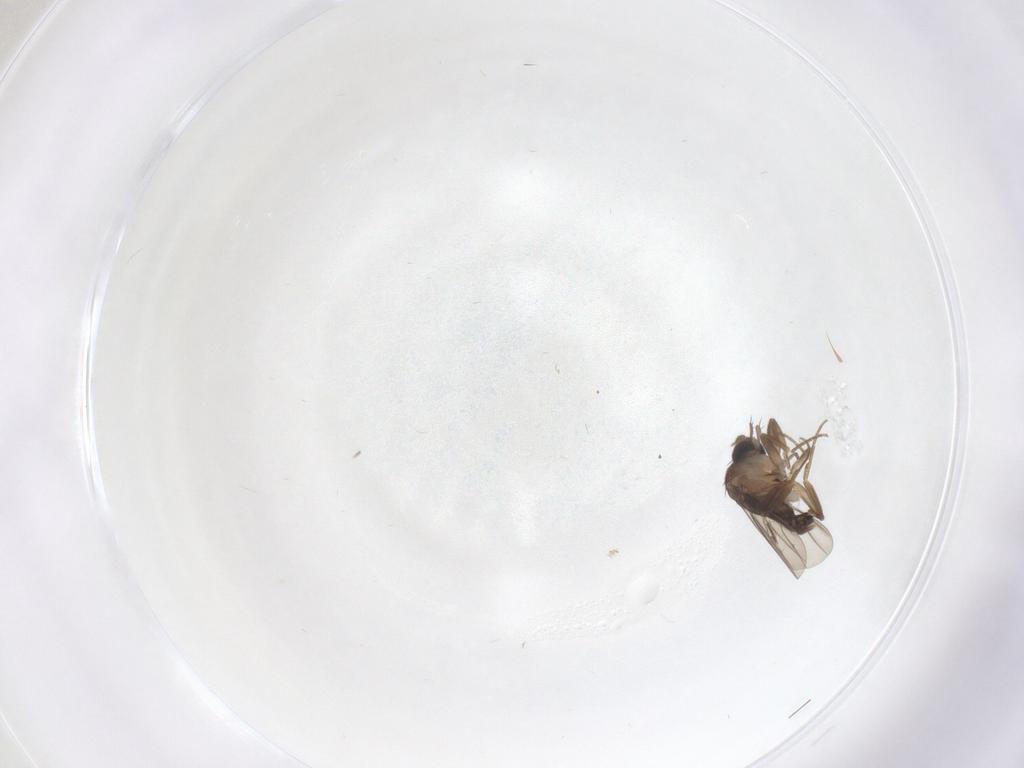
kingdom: Animalia
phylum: Arthropoda
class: Insecta
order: Diptera
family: Phoridae
